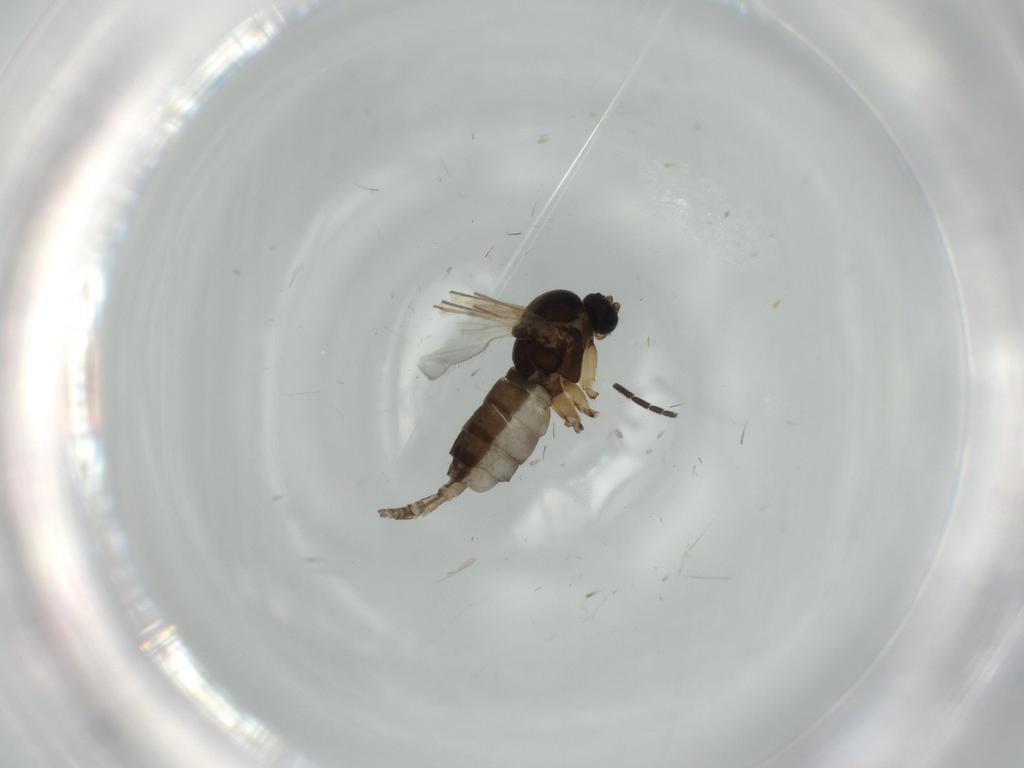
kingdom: Animalia
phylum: Arthropoda
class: Insecta
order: Diptera
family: Sciaridae
